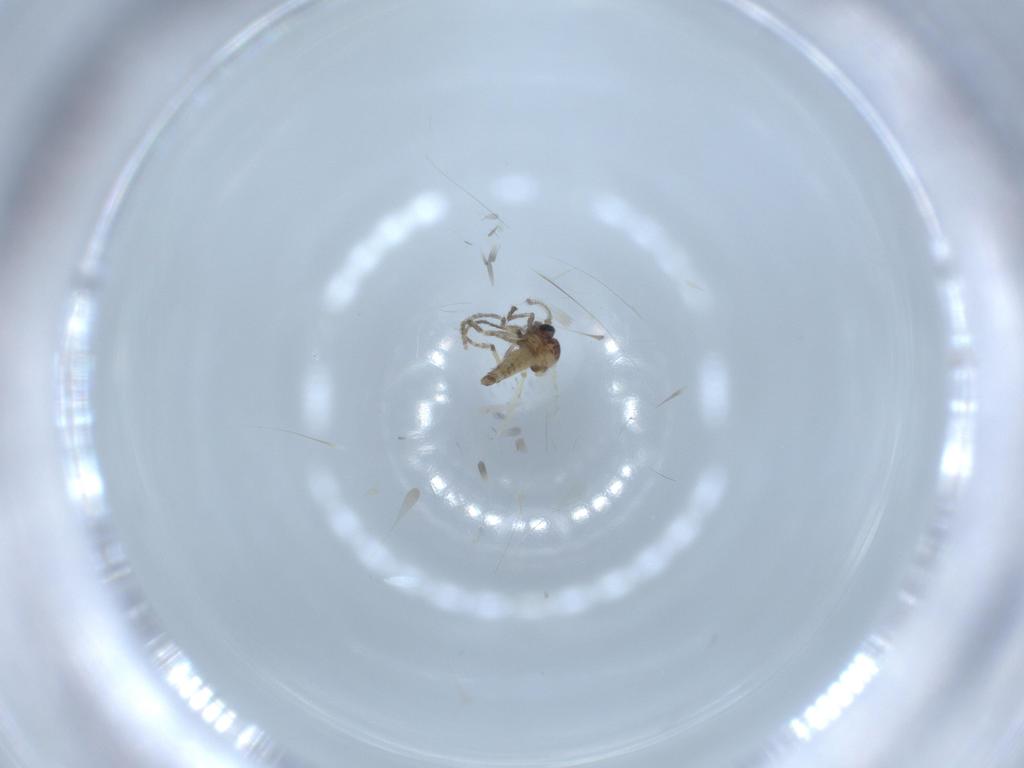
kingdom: Animalia
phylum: Arthropoda
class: Insecta
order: Diptera
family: Ceratopogonidae
